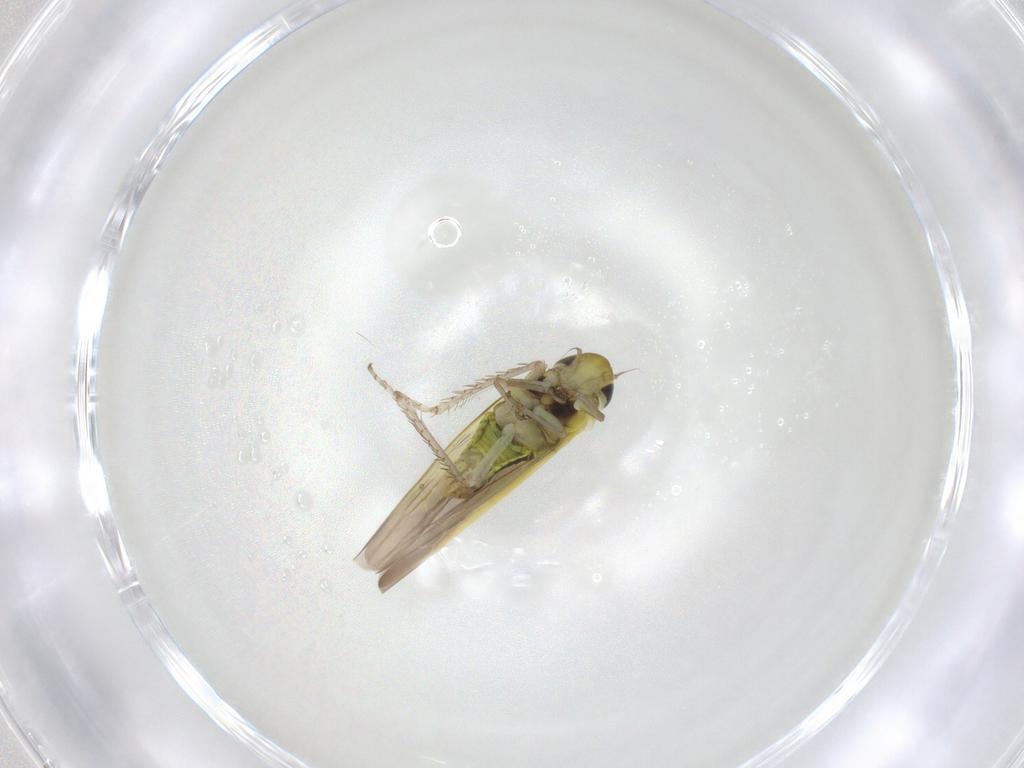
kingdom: Animalia
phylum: Arthropoda
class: Insecta
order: Hemiptera
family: Cicadellidae
